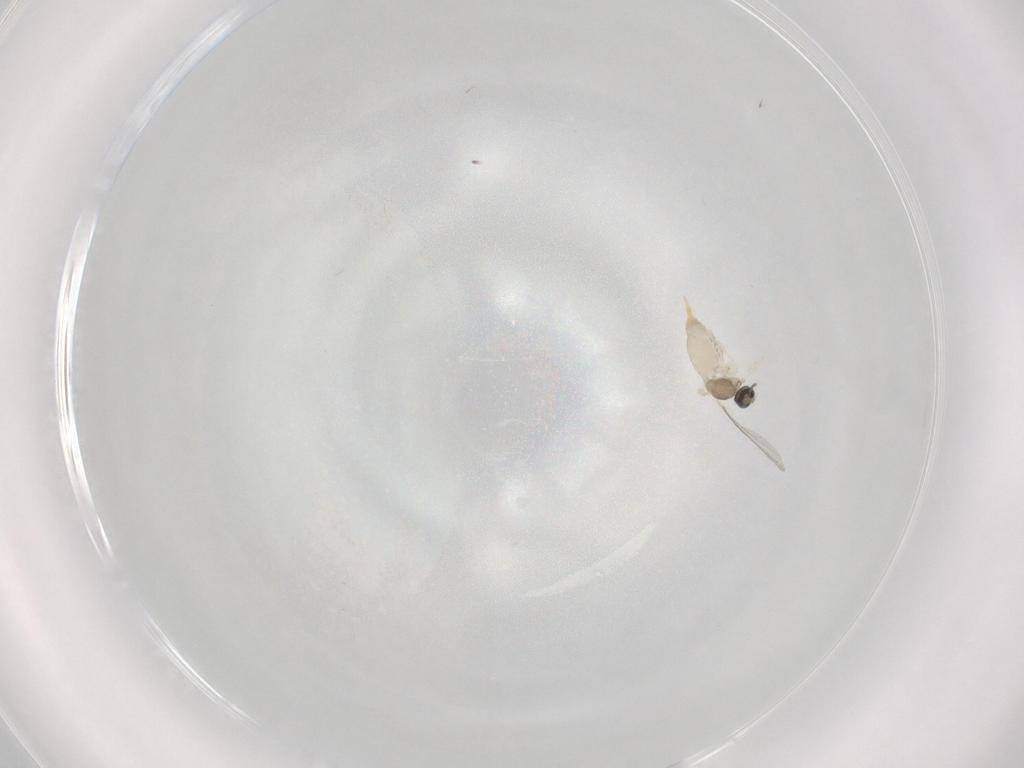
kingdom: Animalia
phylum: Arthropoda
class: Insecta
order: Diptera
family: Cecidomyiidae
